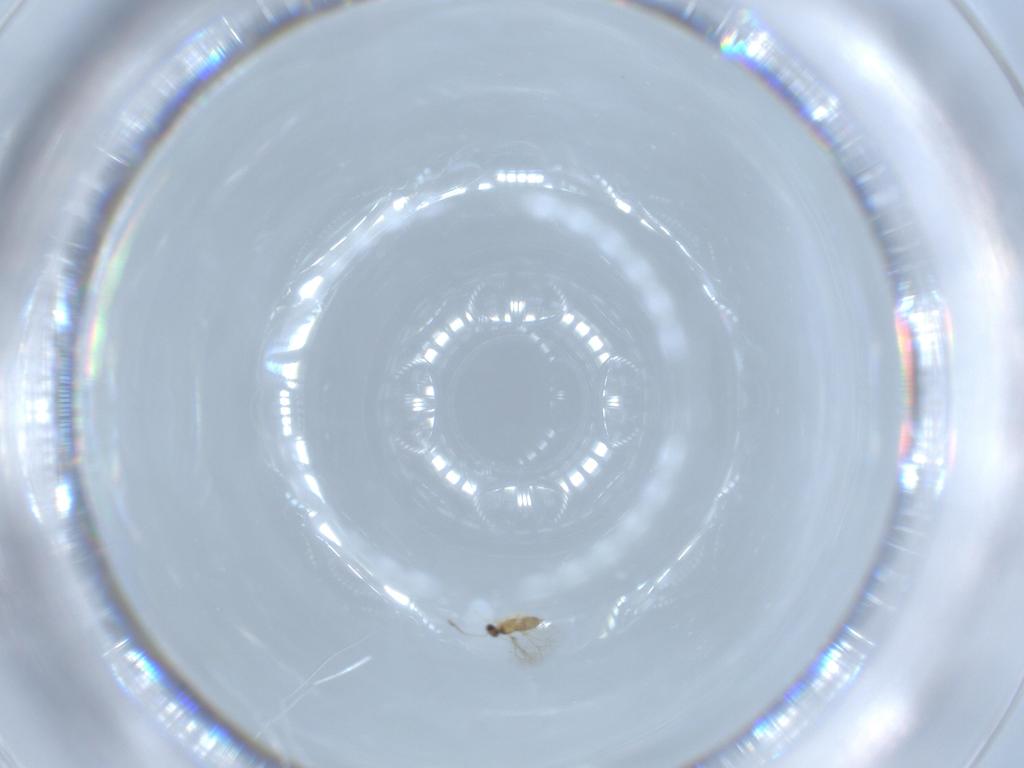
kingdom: Animalia
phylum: Arthropoda
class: Insecta
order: Hymenoptera
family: Mymaridae
